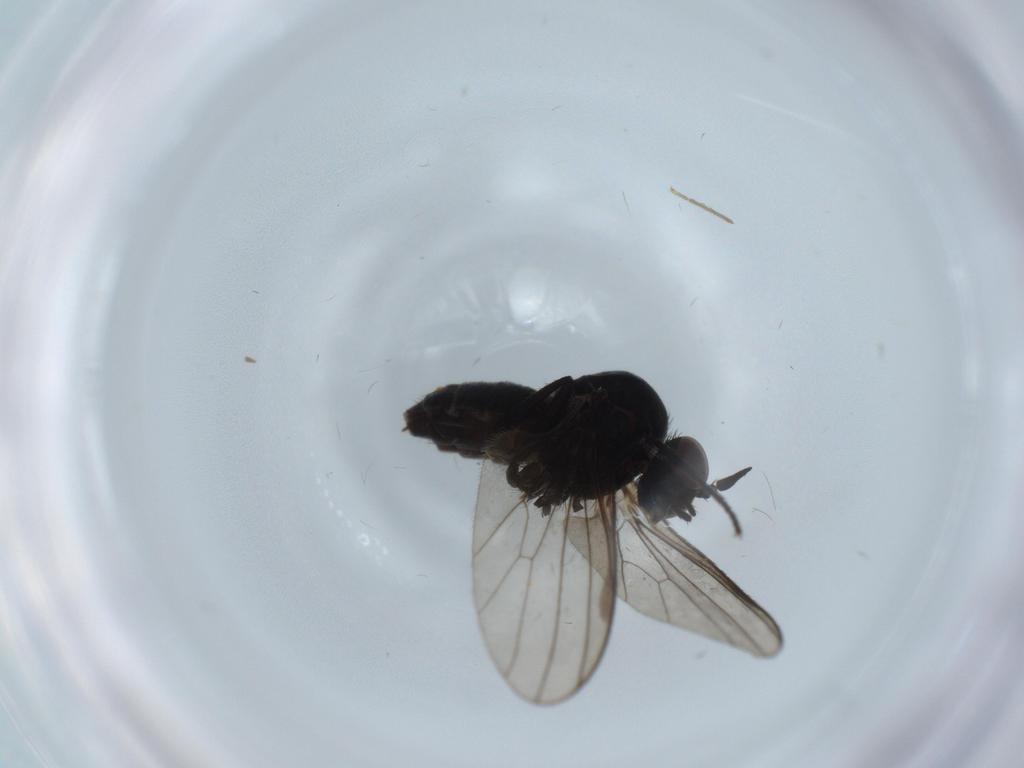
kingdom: Animalia
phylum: Arthropoda
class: Insecta
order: Diptera
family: Dolichopodidae
